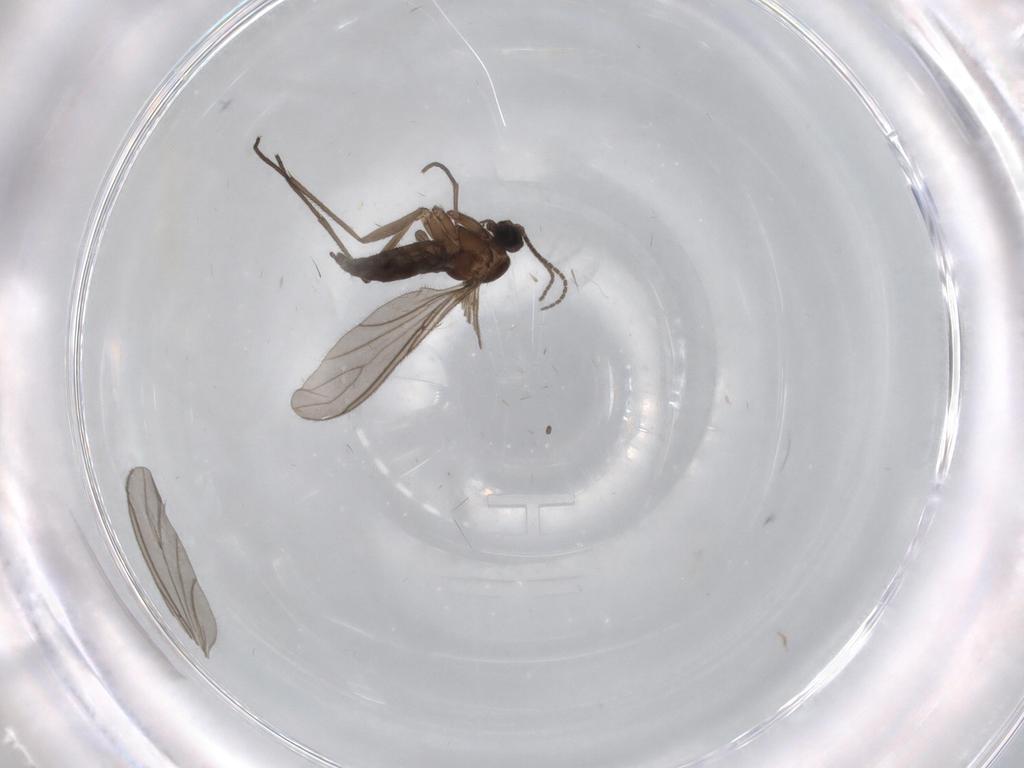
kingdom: Animalia
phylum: Arthropoda
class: Insecta
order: Diptera
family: Sciaridae
